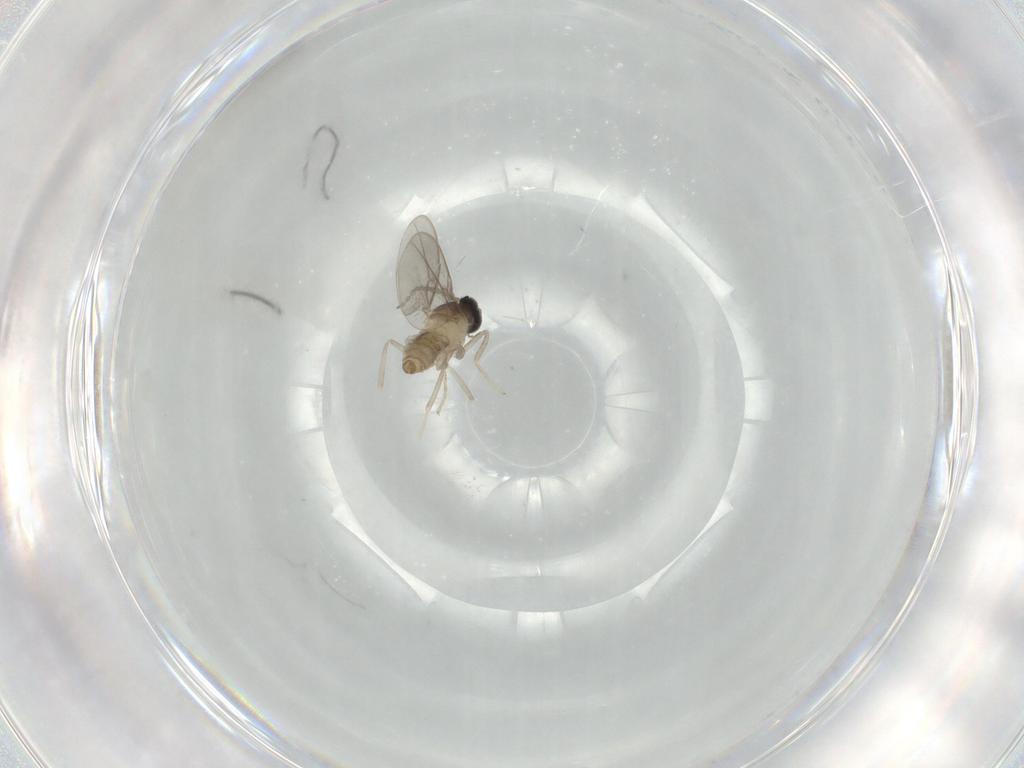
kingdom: Animalia
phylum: Arthropoda
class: Insecta
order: Diptera
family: Cecidomyiidae
